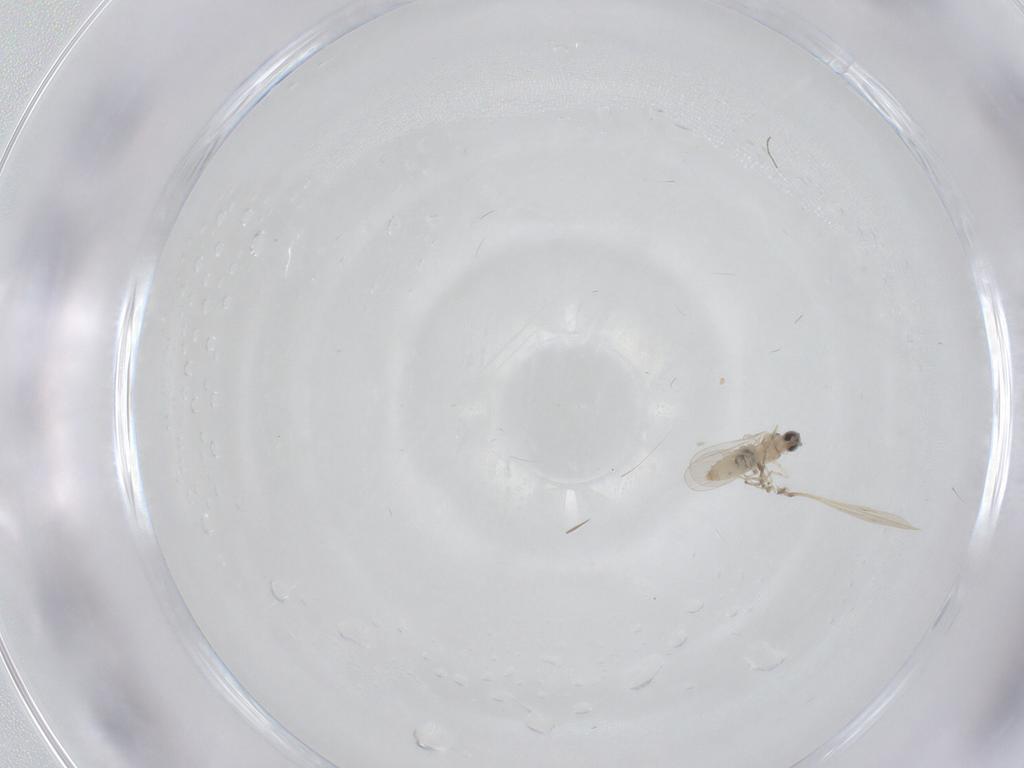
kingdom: Animalia
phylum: Arthropoda
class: Insecta
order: Diptera
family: Cecidomyiidae
